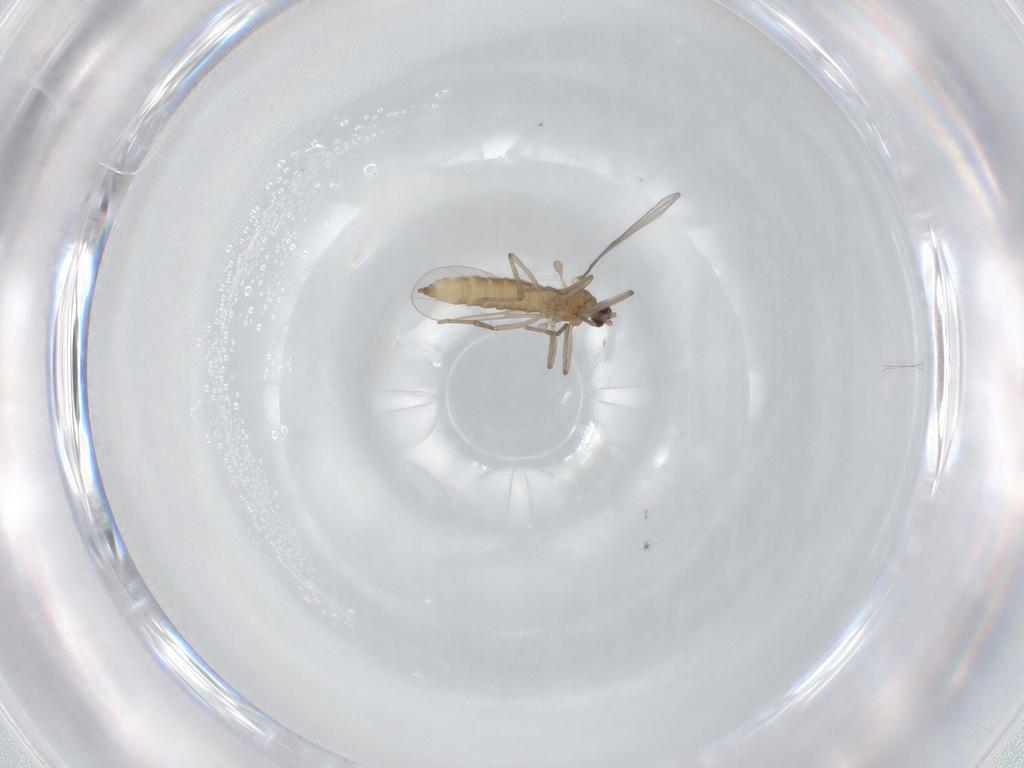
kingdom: Animalia
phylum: Arthropoda
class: Insecta
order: Diptera
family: Cecidomyiidae
